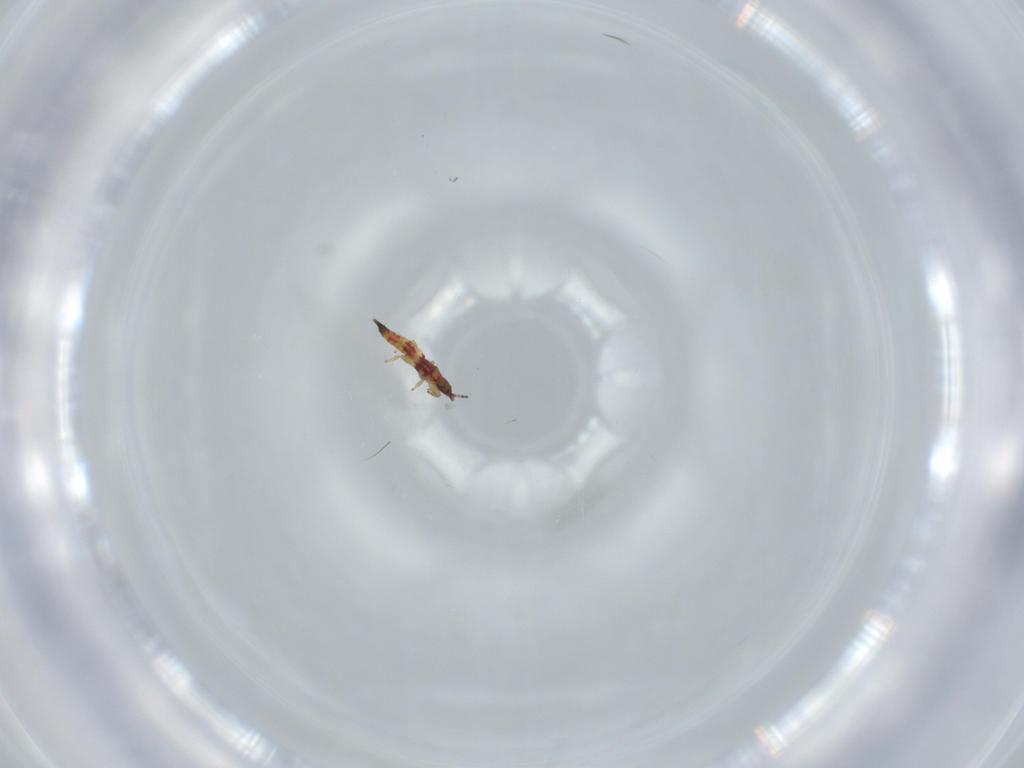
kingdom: Animalia
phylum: Arthropoda
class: Insecta
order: Thysanoptera
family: Phlaeothripidae
